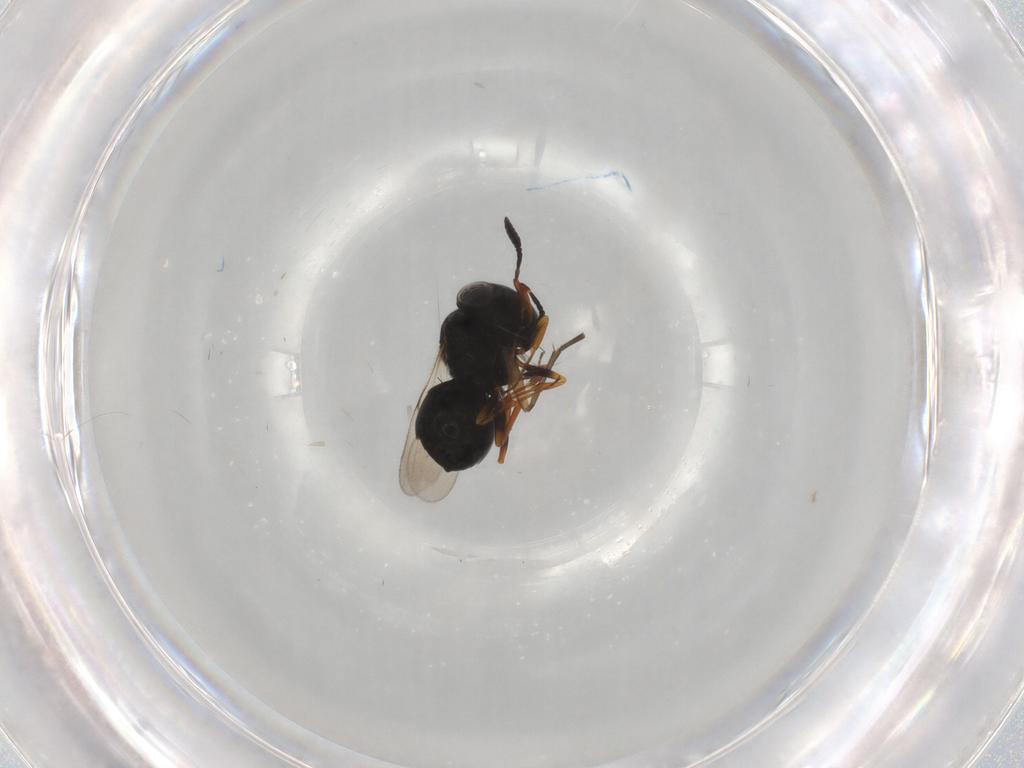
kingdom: Animalia
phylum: Arthropoda
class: Insecta
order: Hymenoptera
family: Scelionidae
